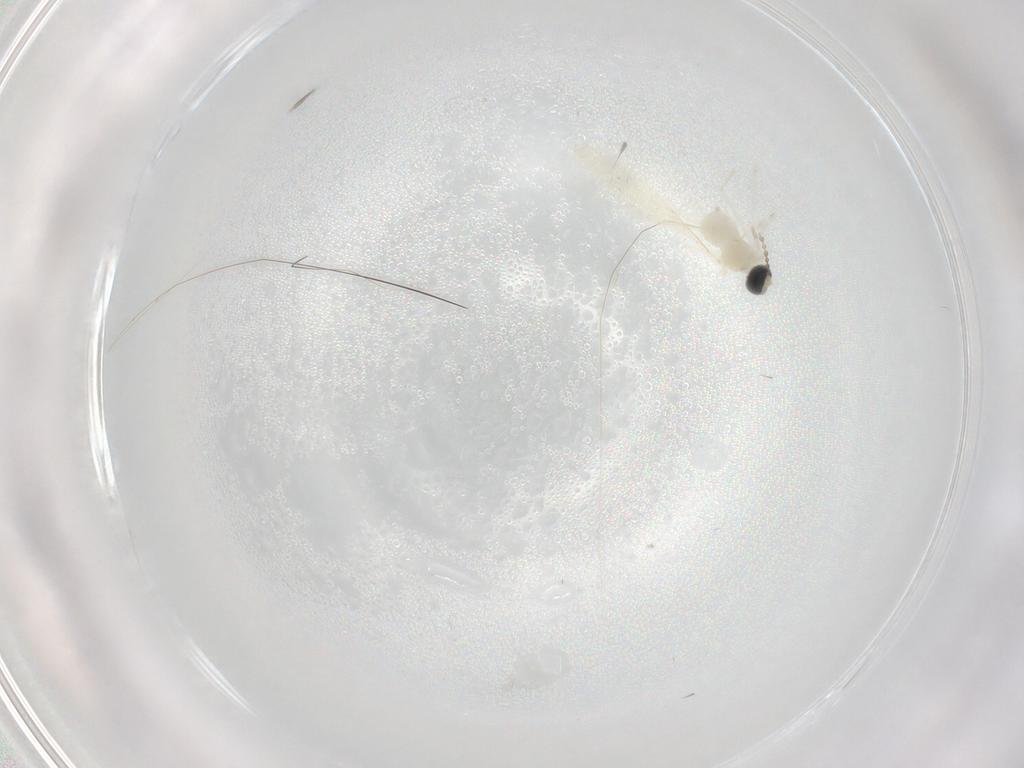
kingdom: Animalia
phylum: Arthropoda
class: Insecta
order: Diptera
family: Cecidomyiidae
